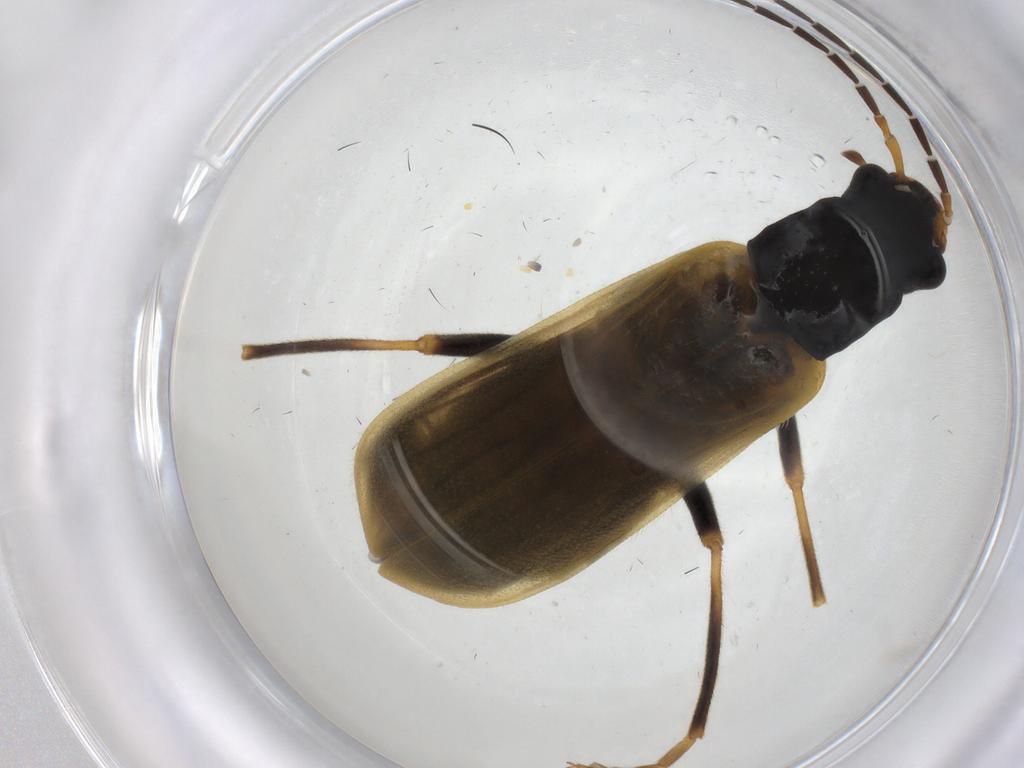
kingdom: Animalia
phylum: Arthropoda
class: Insecta
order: Coleoptera
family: Cantharidae
